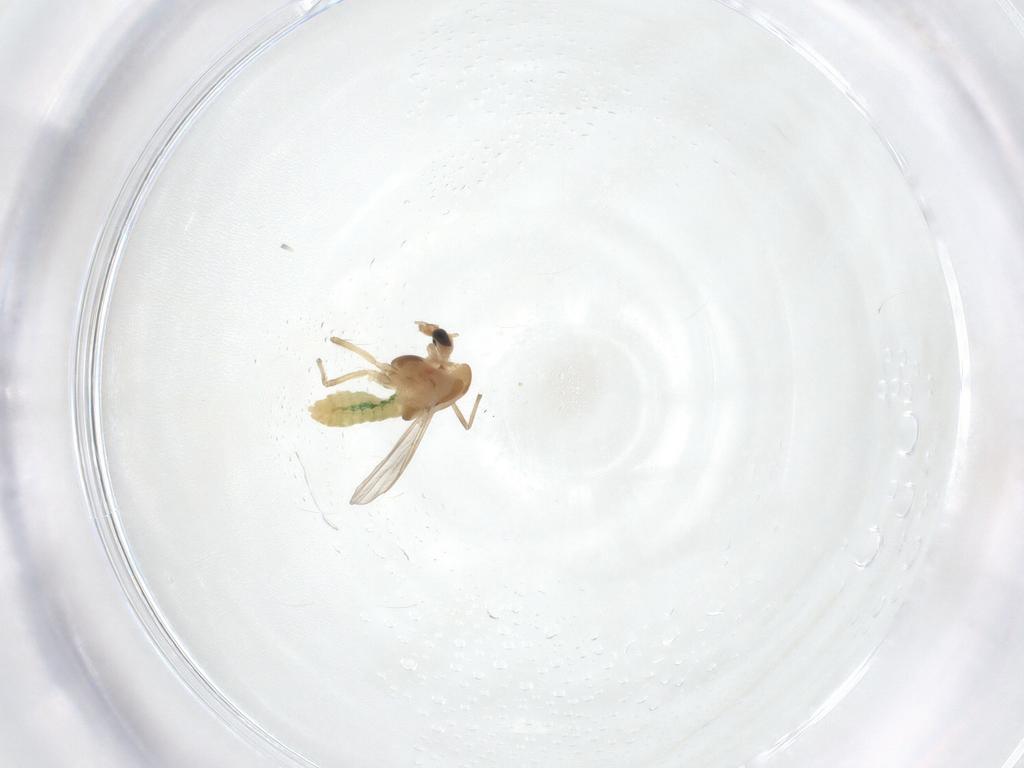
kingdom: Animalia
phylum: Arthropoda
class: Insecta
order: Diptera
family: Chironomidae
